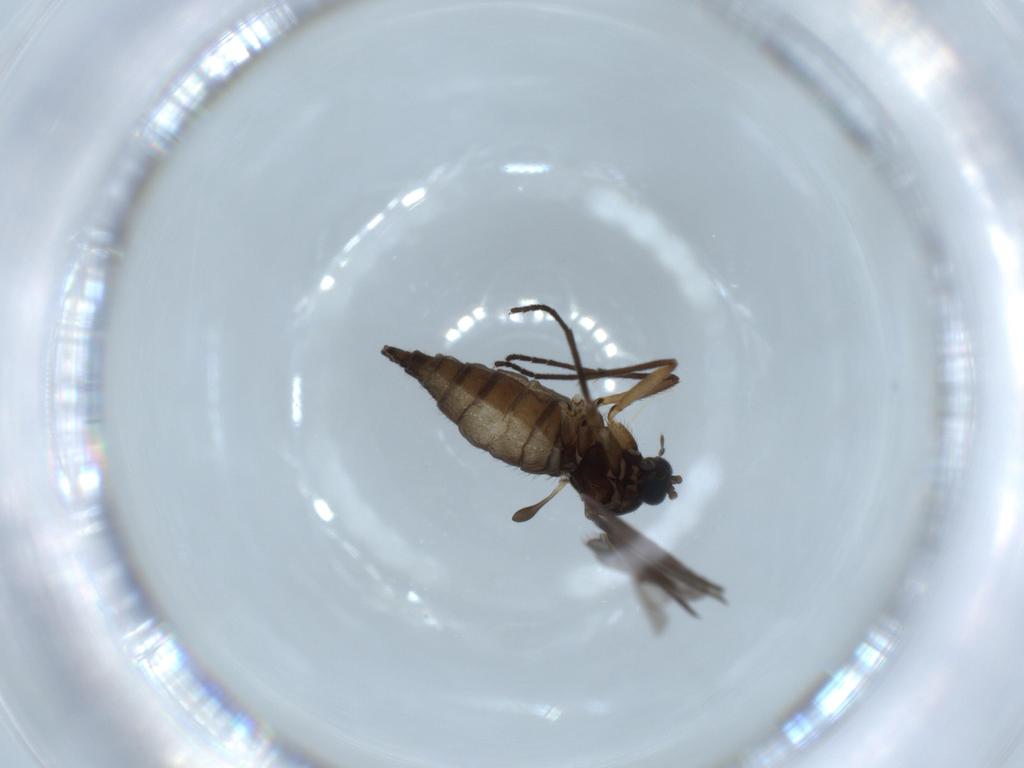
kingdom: Animalia
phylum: Arthropoda
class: Insecta
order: Diptera
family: Sciaridae
